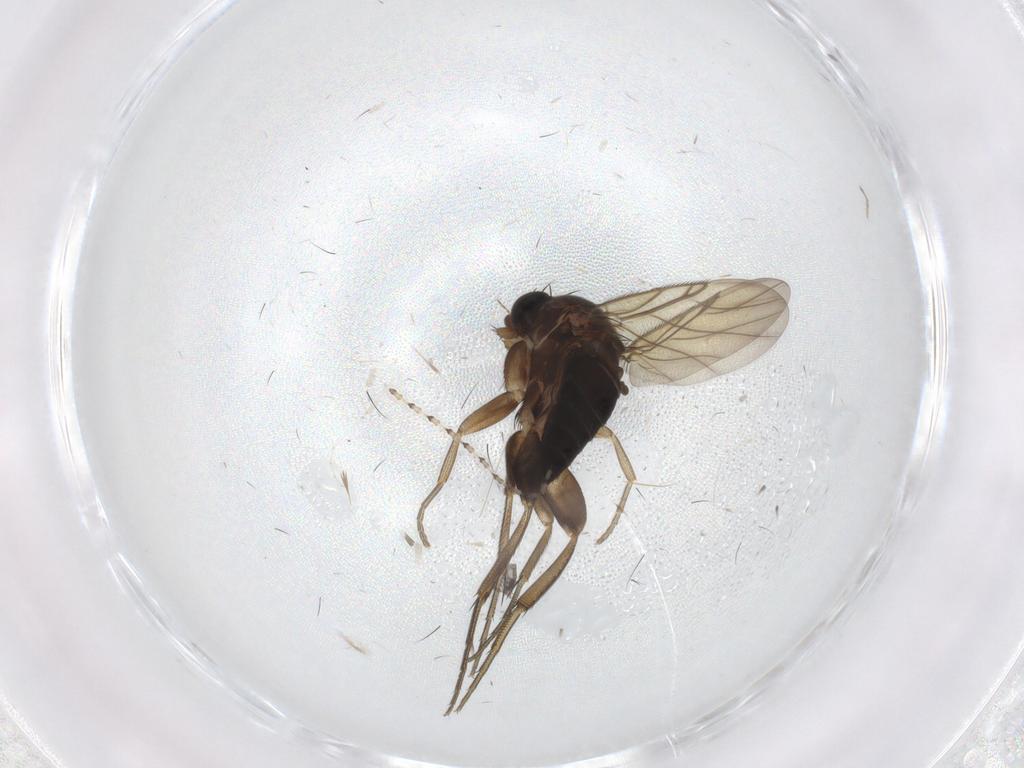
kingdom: Animalia
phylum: Arthropoda
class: Insecta
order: Diptera
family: Phoridae
